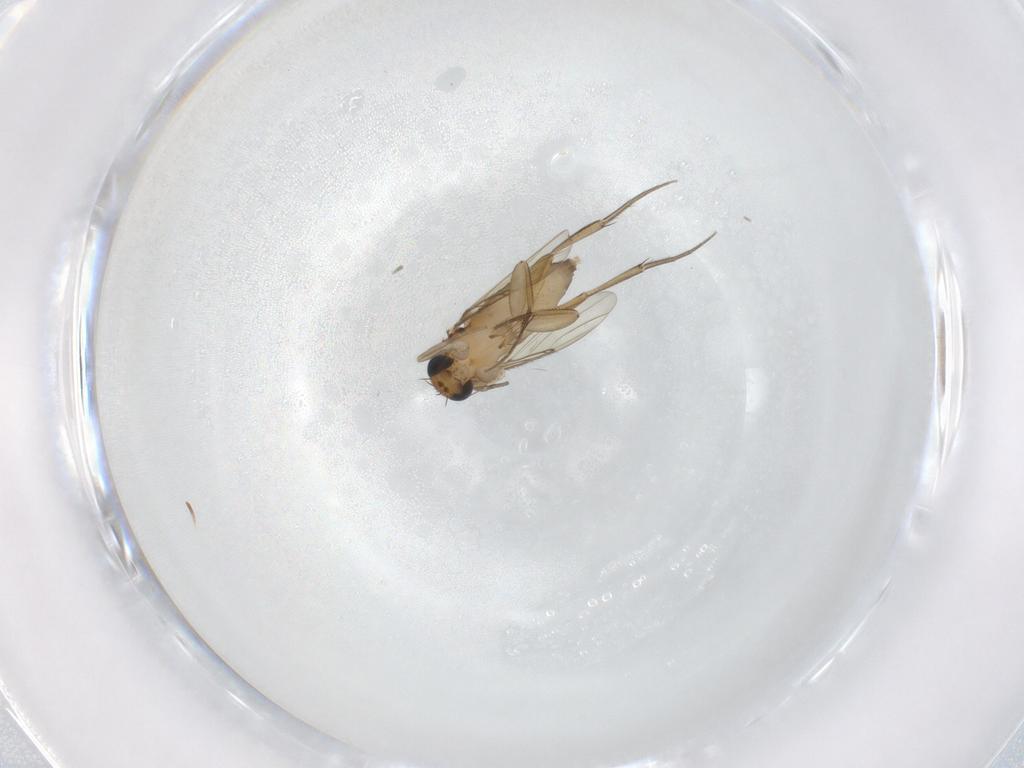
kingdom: Animalia
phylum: Arthropoda
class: Insecta
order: Diptera
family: Phoridae
